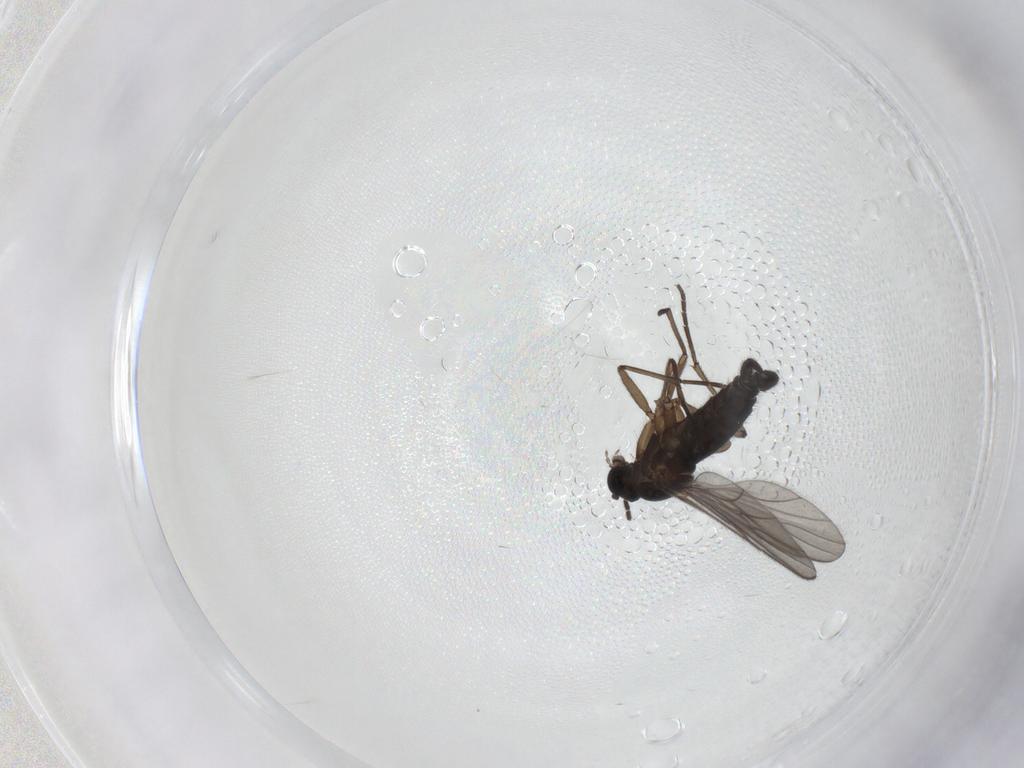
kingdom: Animalia
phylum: Arthropoda
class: Insecta
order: Diptera
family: Sciaridae
